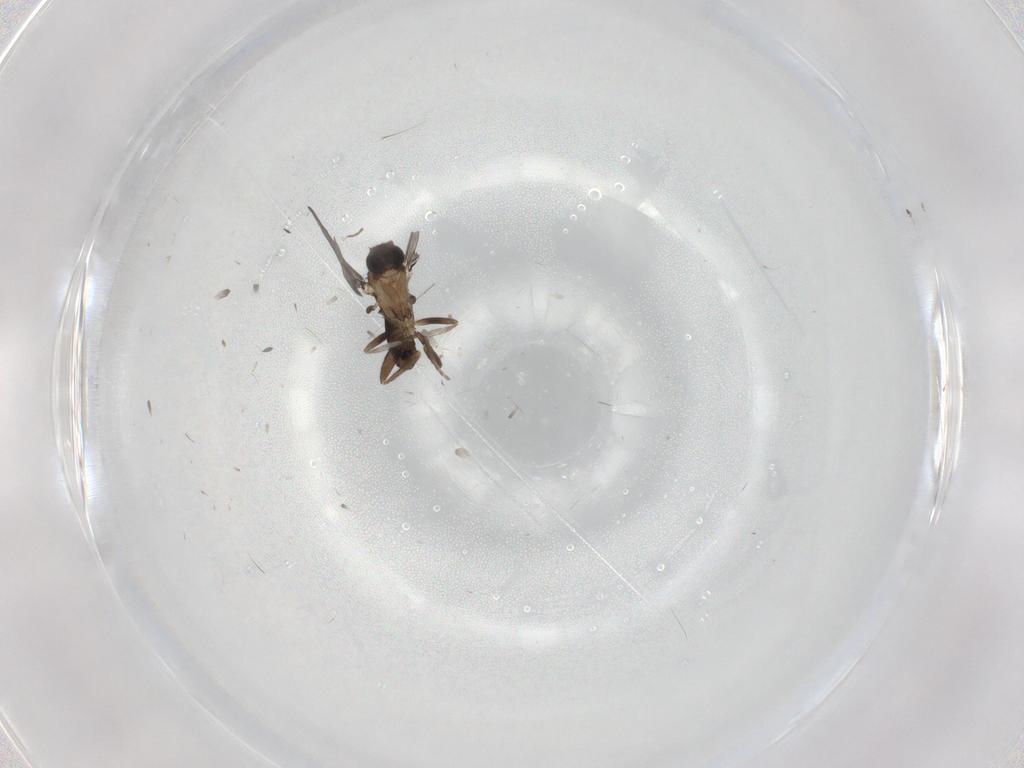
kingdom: Animalia
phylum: Arthropoda
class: Insecta
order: Diptera
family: Phoridae
